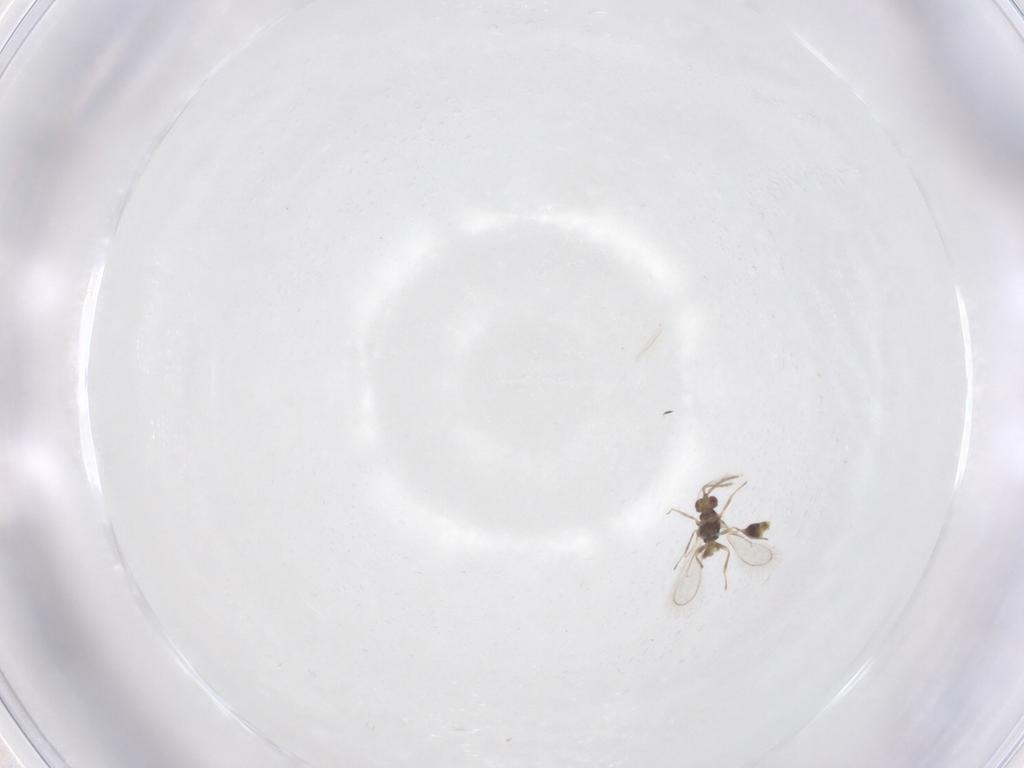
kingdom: Animalia
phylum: Arthropoda
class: Insecta
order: Hymenoptera
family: Eulophidae
